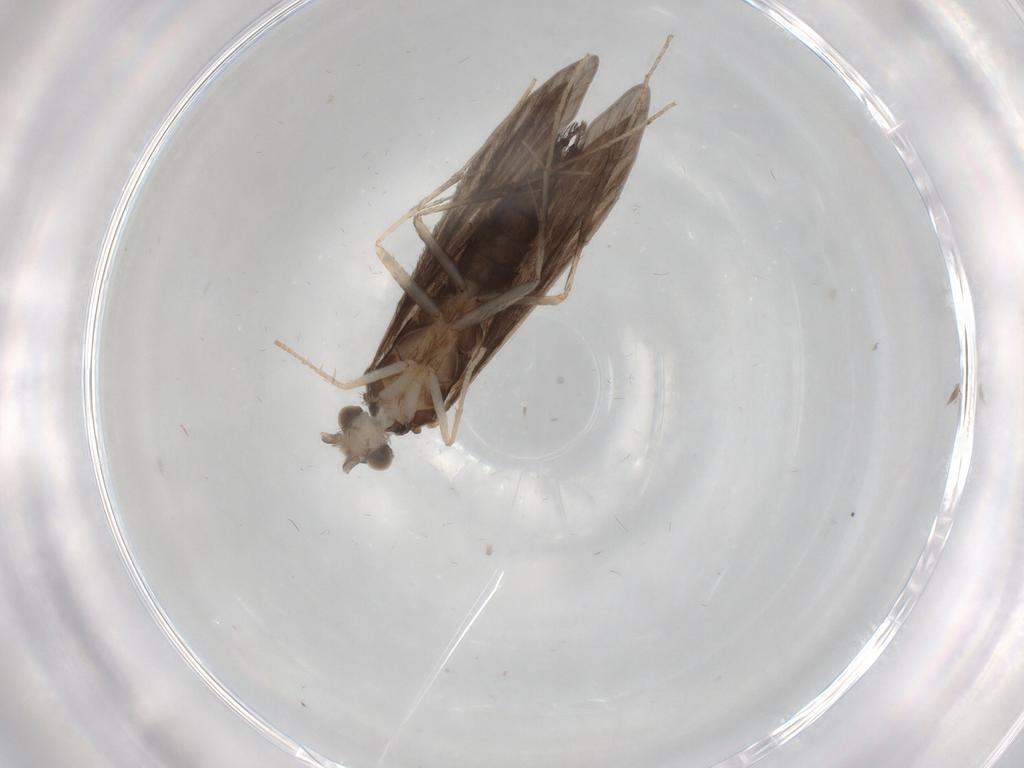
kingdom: Animalia
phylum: Arthropoda
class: Insecta
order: Trichoptera
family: Xiphocentronidae
